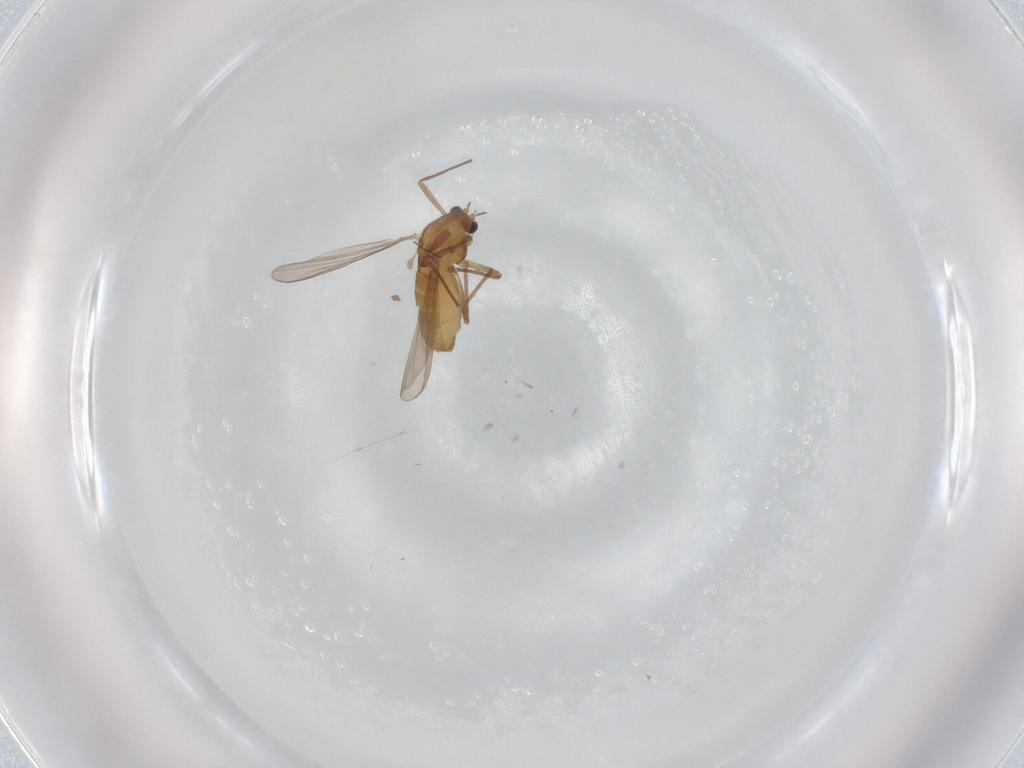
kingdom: Animalia
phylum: Arthropoda
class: Insecta
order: Diptera
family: Chironomidae
